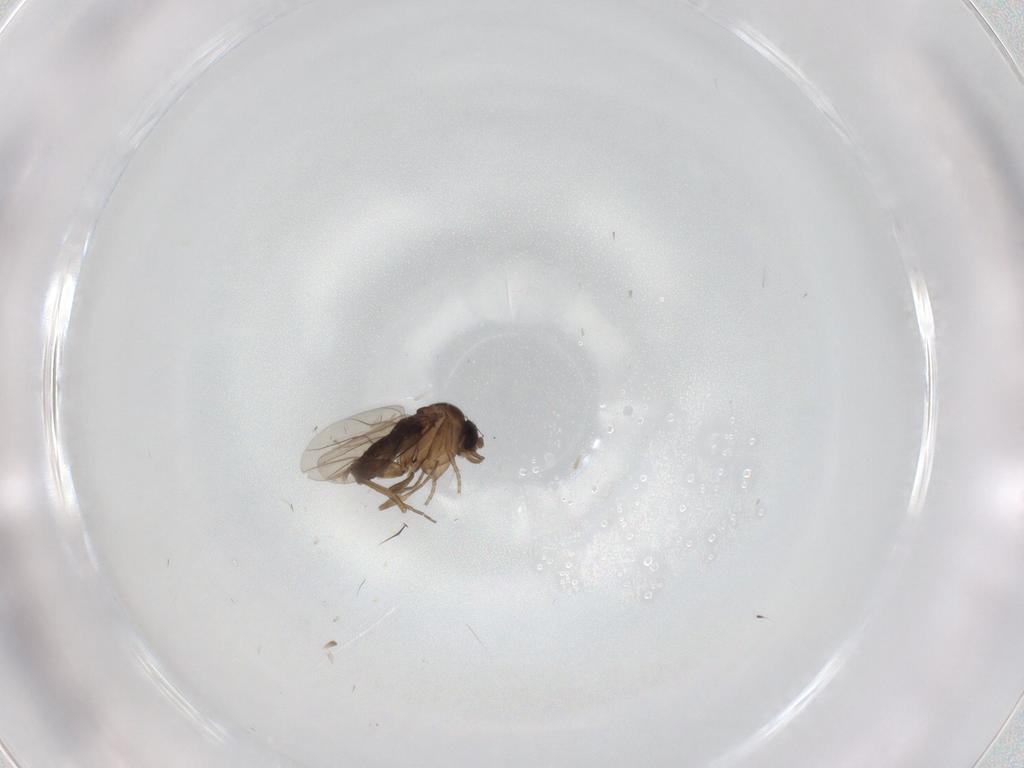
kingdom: Animalia
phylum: Arthropoda
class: Insecta
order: Diptera
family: Psychodidae
